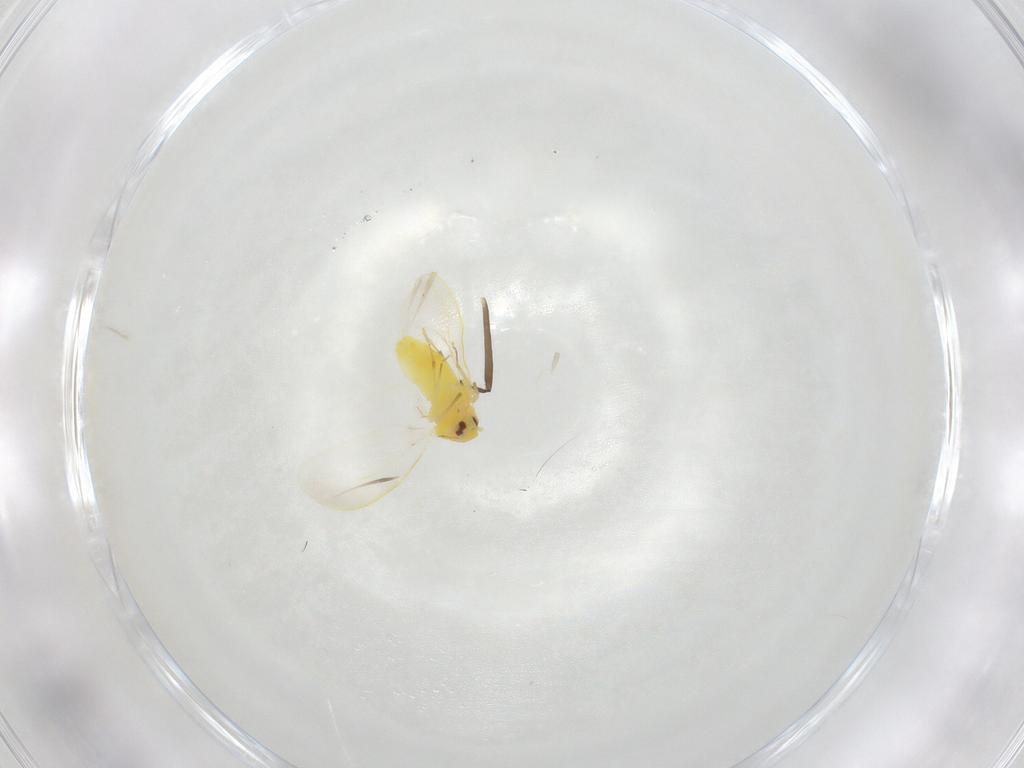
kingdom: Animalia
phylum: Arthropoda
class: Insecta
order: Hemiptera
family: Aleyrodidae
